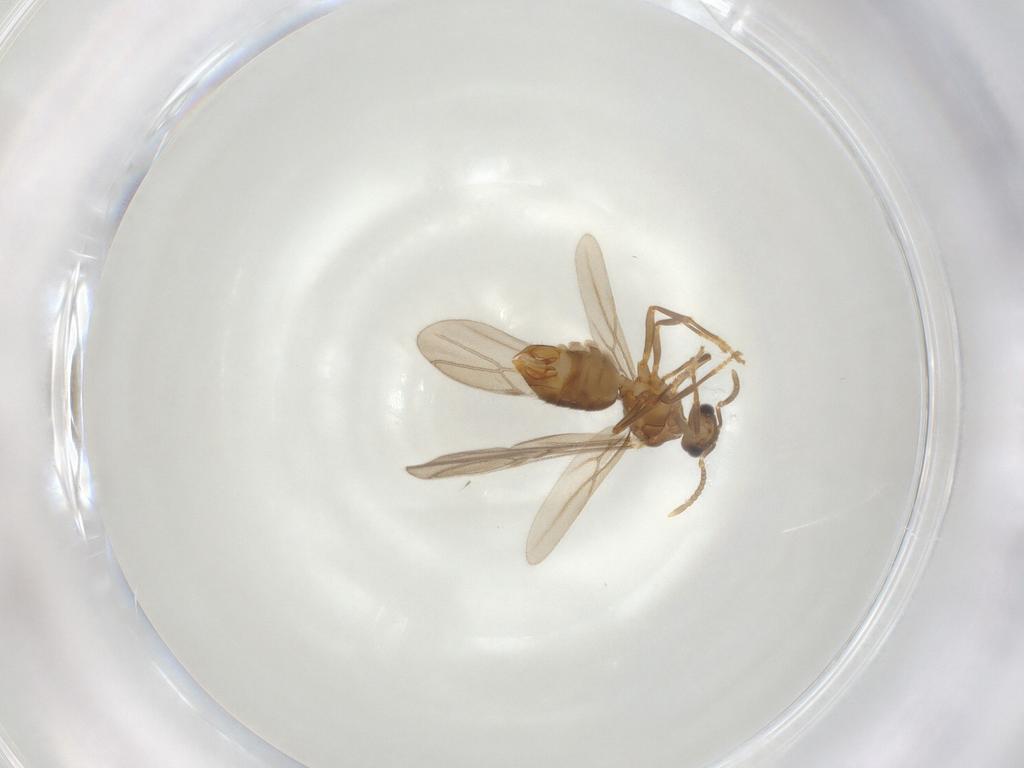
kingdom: Animalia
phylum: Arthropoda
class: Insecta
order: Hymenoptera
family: Formicidae
